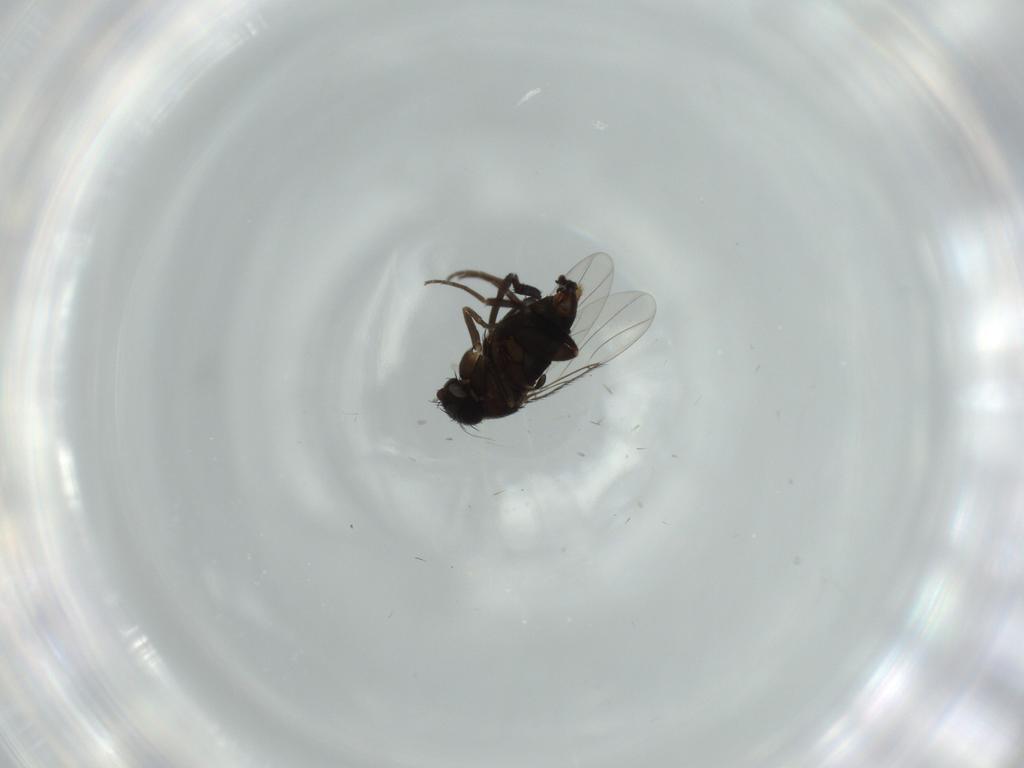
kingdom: Animalia
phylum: Arthropoda
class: Insecta
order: Diptera
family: Phoridae
